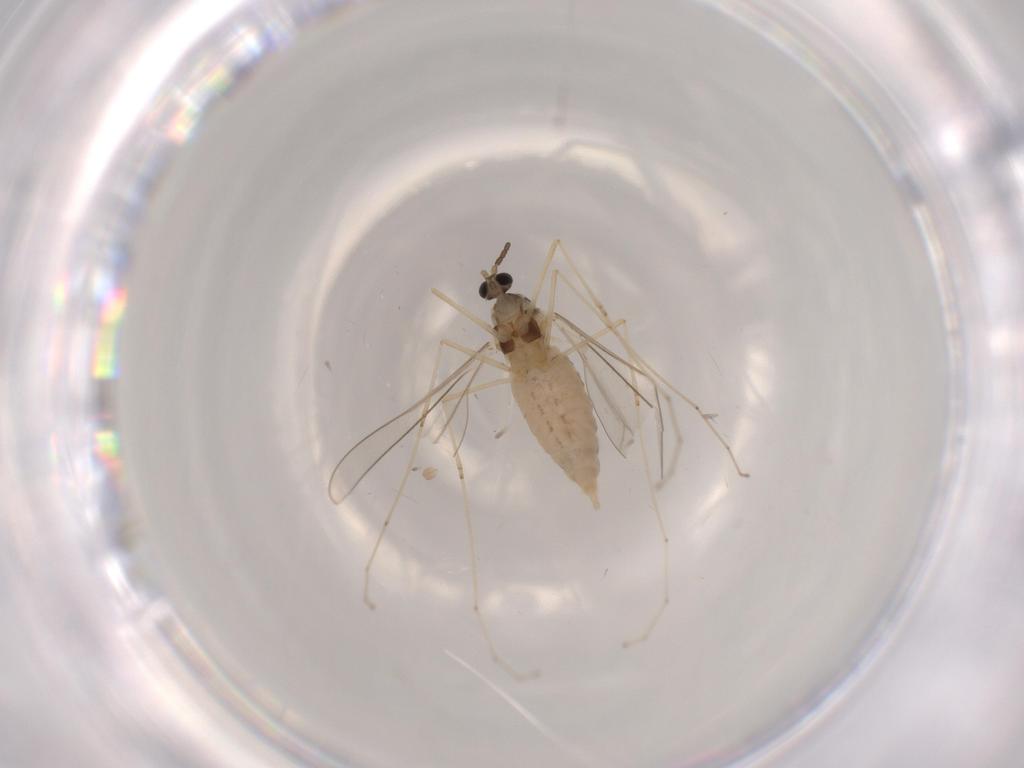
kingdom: Animalia
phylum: Arthropoda
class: Insecta
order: Diptera
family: Cecidomyiidae
